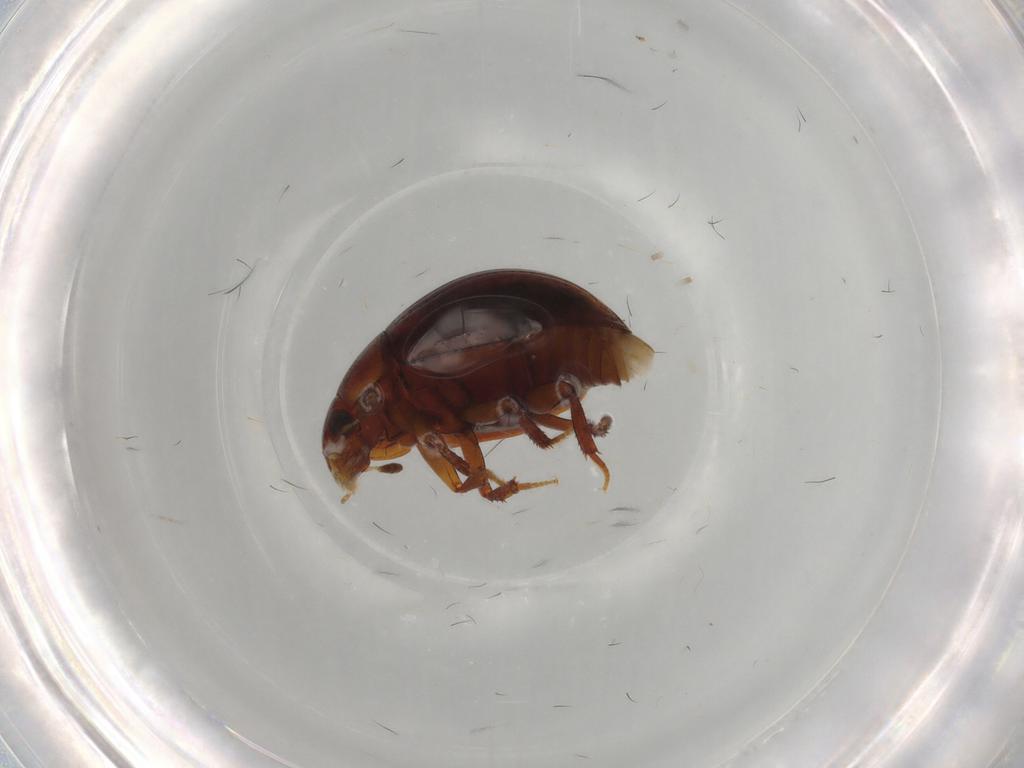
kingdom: Animalia
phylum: Arthropoda
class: Insecta
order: Coleoptera
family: Hydrophilidae
